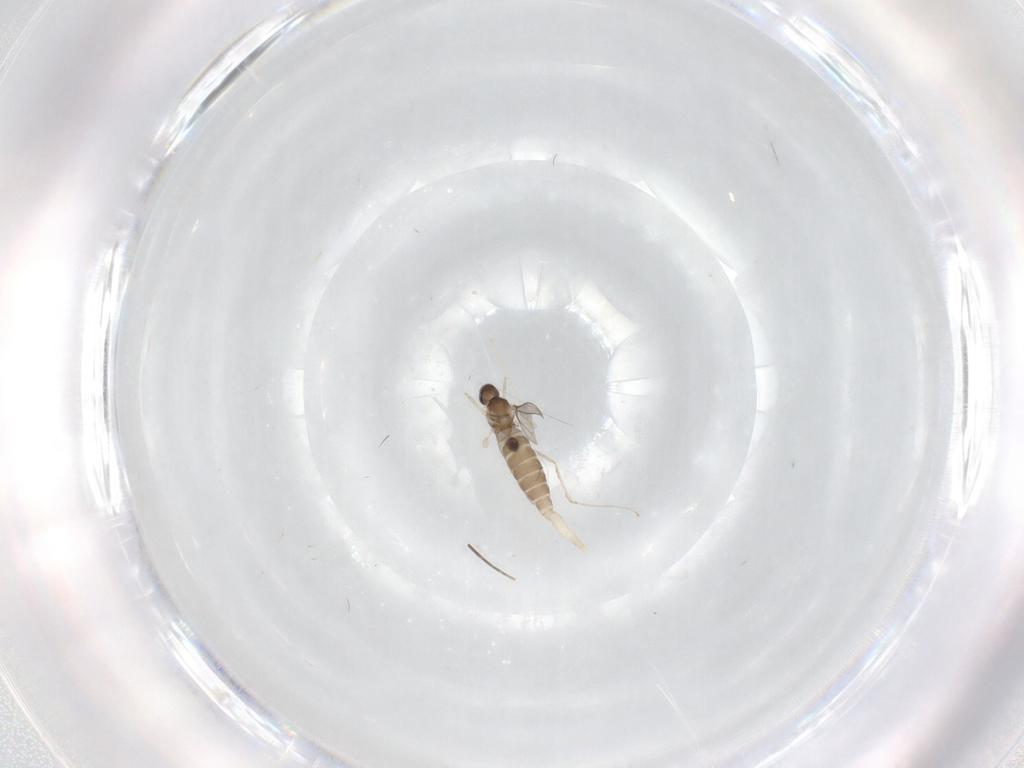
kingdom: Animalia
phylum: Arthropoda
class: Insecta
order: Diptera
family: Phoridae
